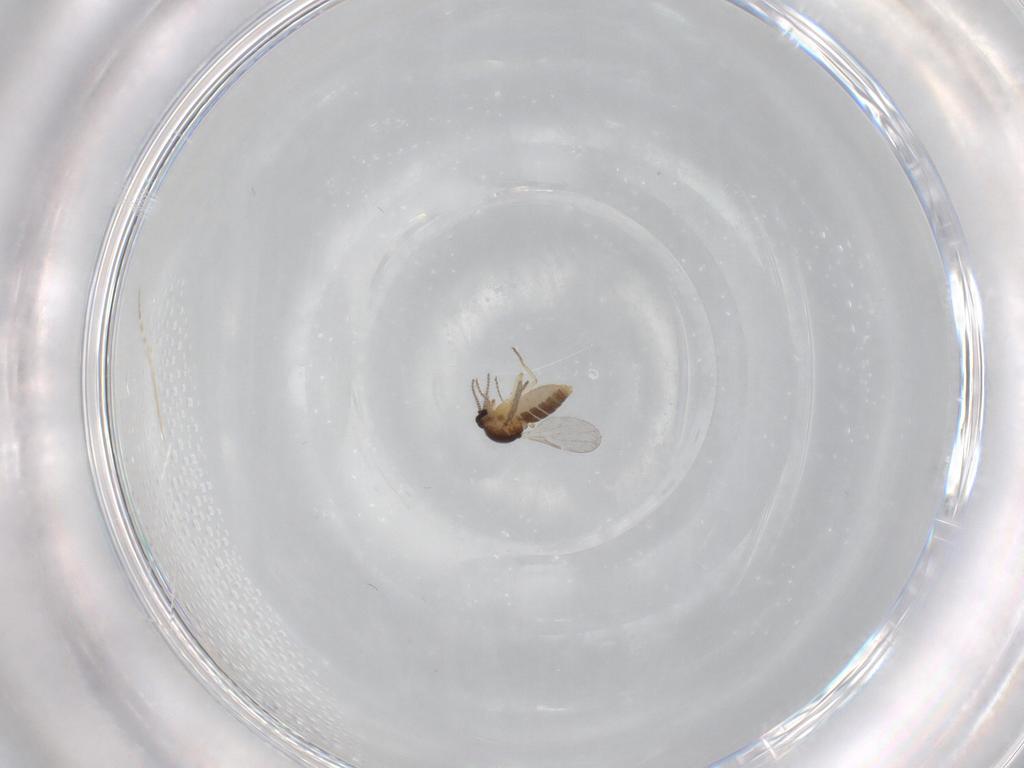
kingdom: Animalia
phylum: Arthropoda
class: Insecta
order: Diptera
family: Ceratopogonidae
